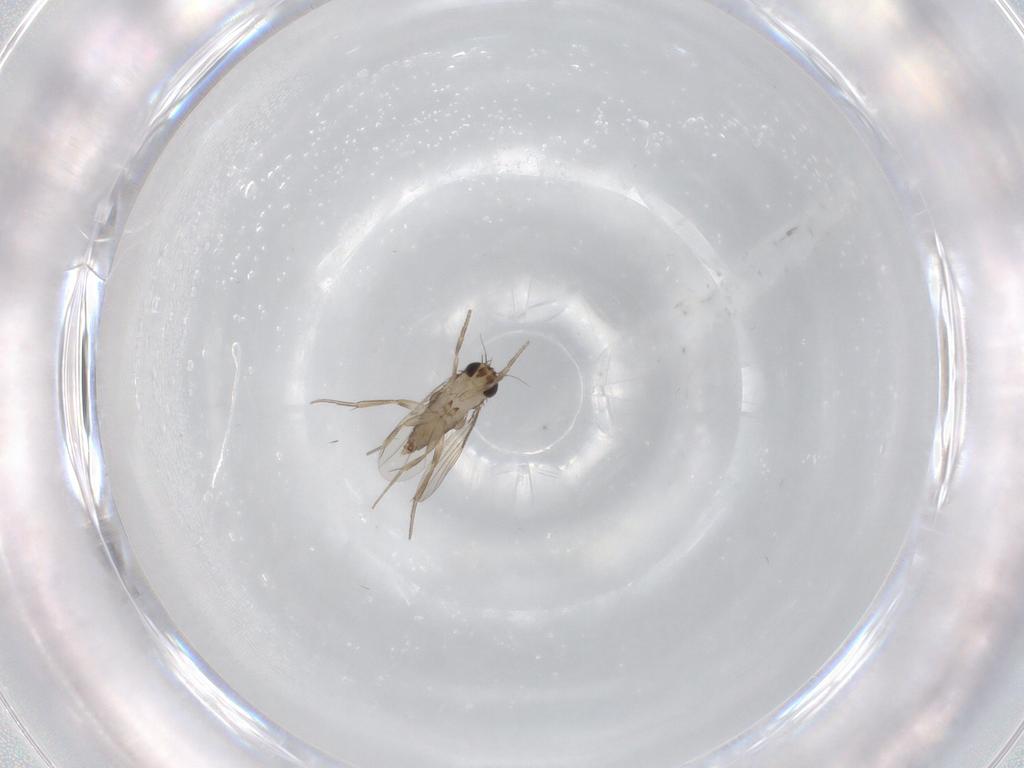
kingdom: Animalia
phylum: Arthropoda
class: Insecta
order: Diptera
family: Phoridae
